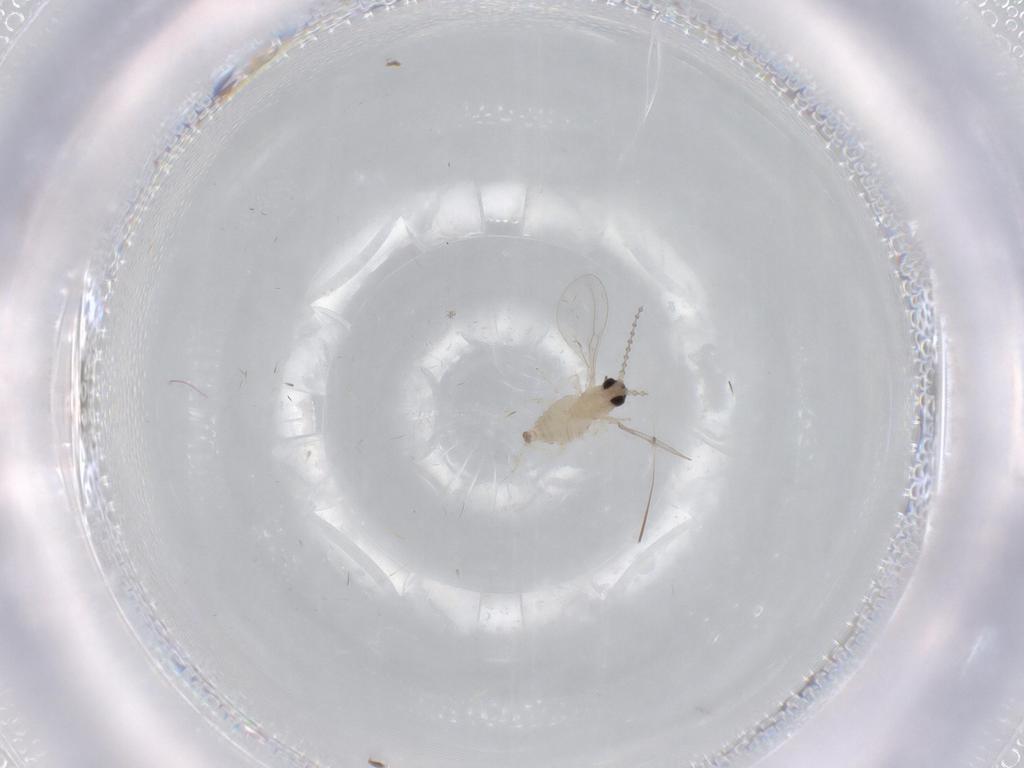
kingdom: Animalia
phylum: Arthropoda
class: Insecta
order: Diptera
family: Cecidomyiidae
